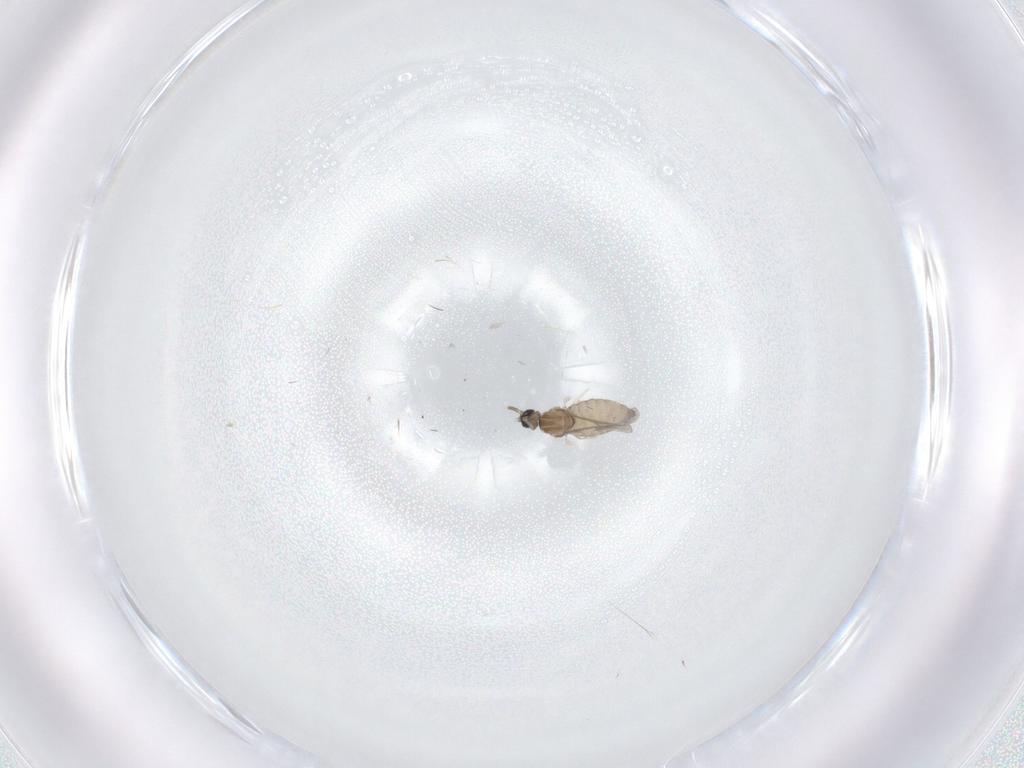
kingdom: Animalia
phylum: Arthropoda
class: Insecta
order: Diptera
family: Cecidomyiidae
